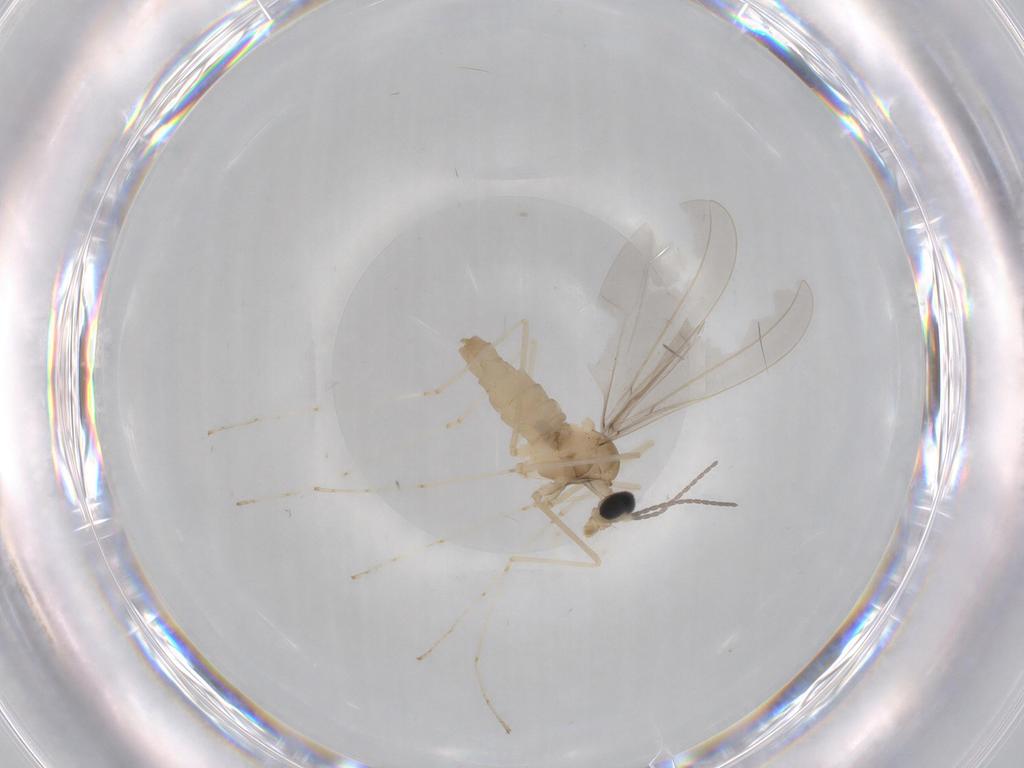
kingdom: Animalia
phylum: Arthropoda
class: Insecta
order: Diptera
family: Cecidomyiidae
